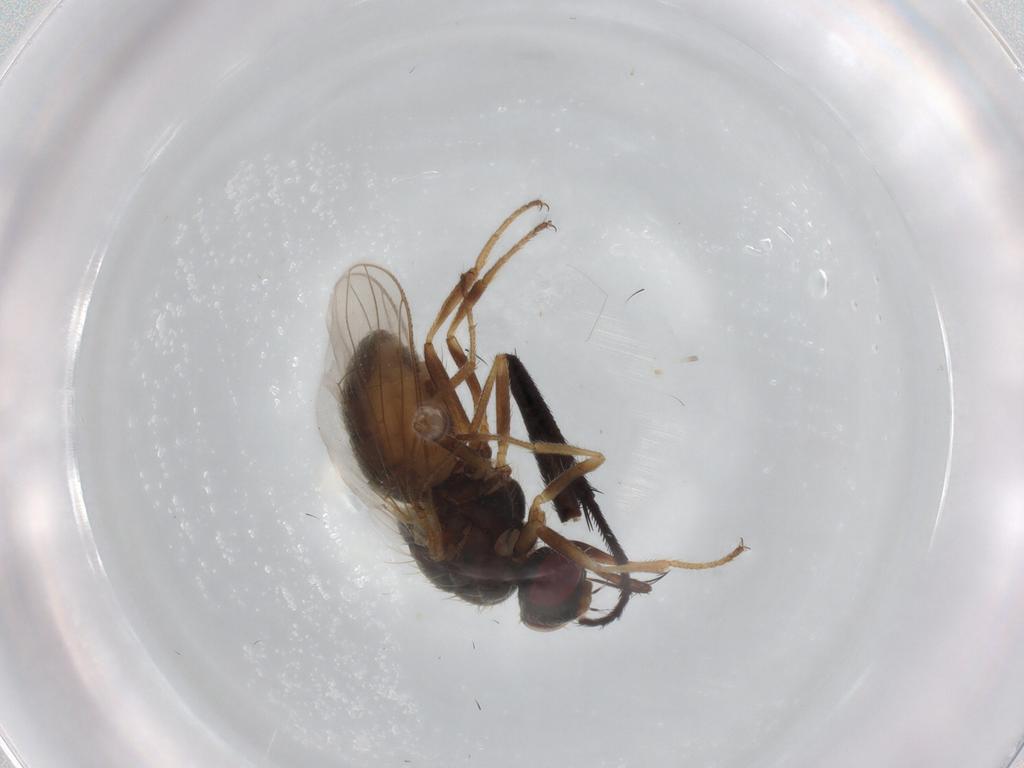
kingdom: Animalia
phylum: Arthropoda
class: Insecta
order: Diptera
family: Muscidae
